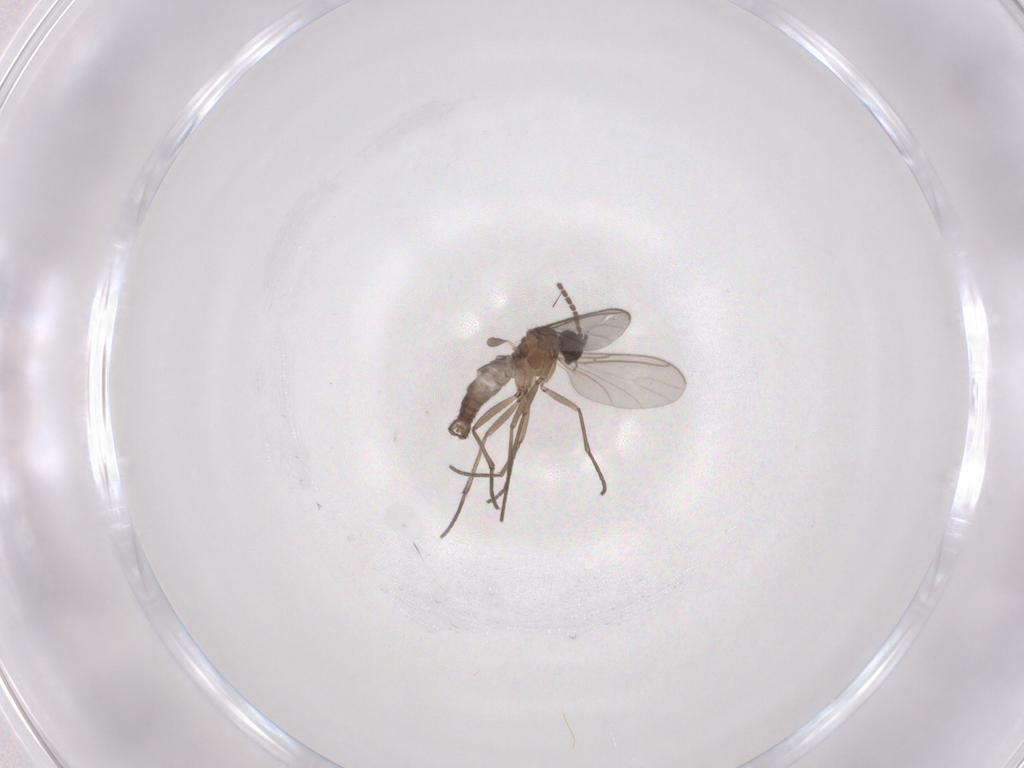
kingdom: Animalia
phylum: Arthropoda
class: Insecta
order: Diptera
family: Sciaridae
